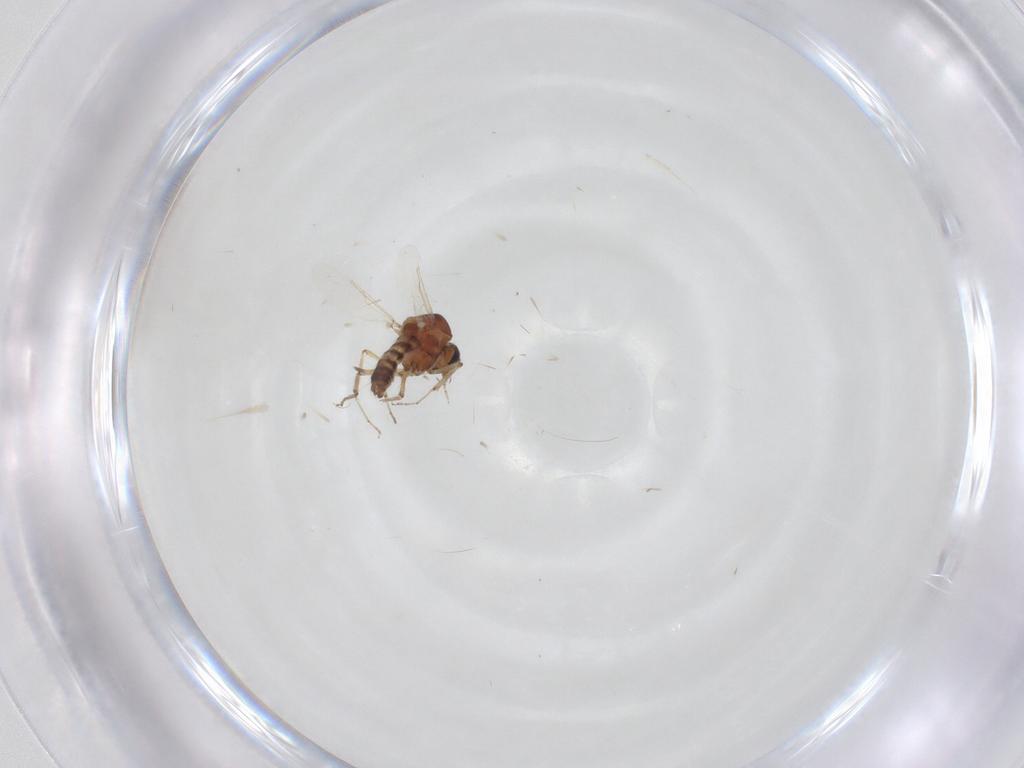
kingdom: Animalia
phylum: Arthropoda
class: Insecta
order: Diptera
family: Ceratopogonidae
